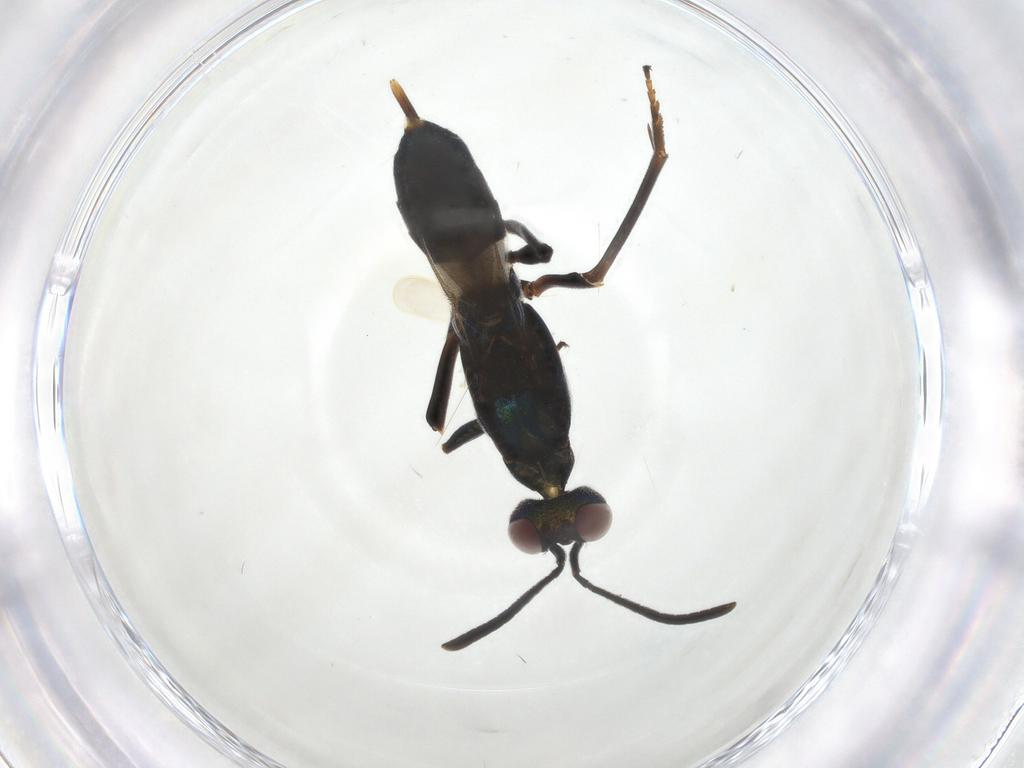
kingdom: Animalia
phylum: Arthropoda
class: Insecta
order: Hymenoptera
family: Eupelmidae
